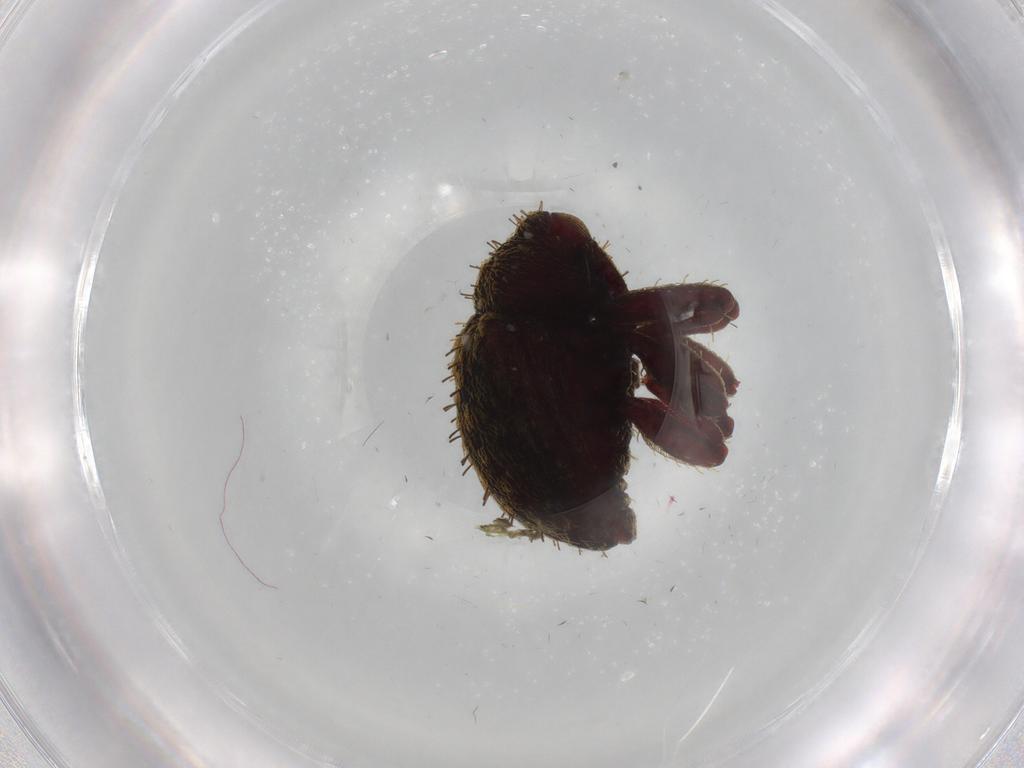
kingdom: Animalia
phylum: Arthropoda
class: Insecta
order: Coleoptera
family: Curculionidae
